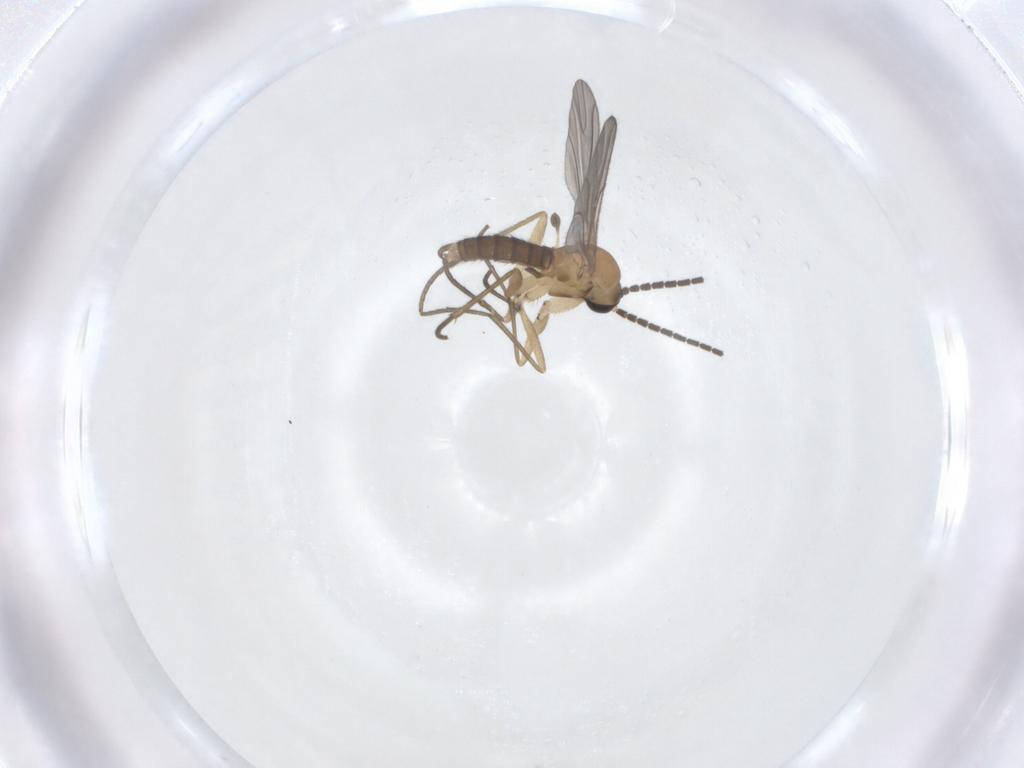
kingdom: Animalia
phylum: Arthropoda
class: Insecta
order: Diptera
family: Sciaridae
